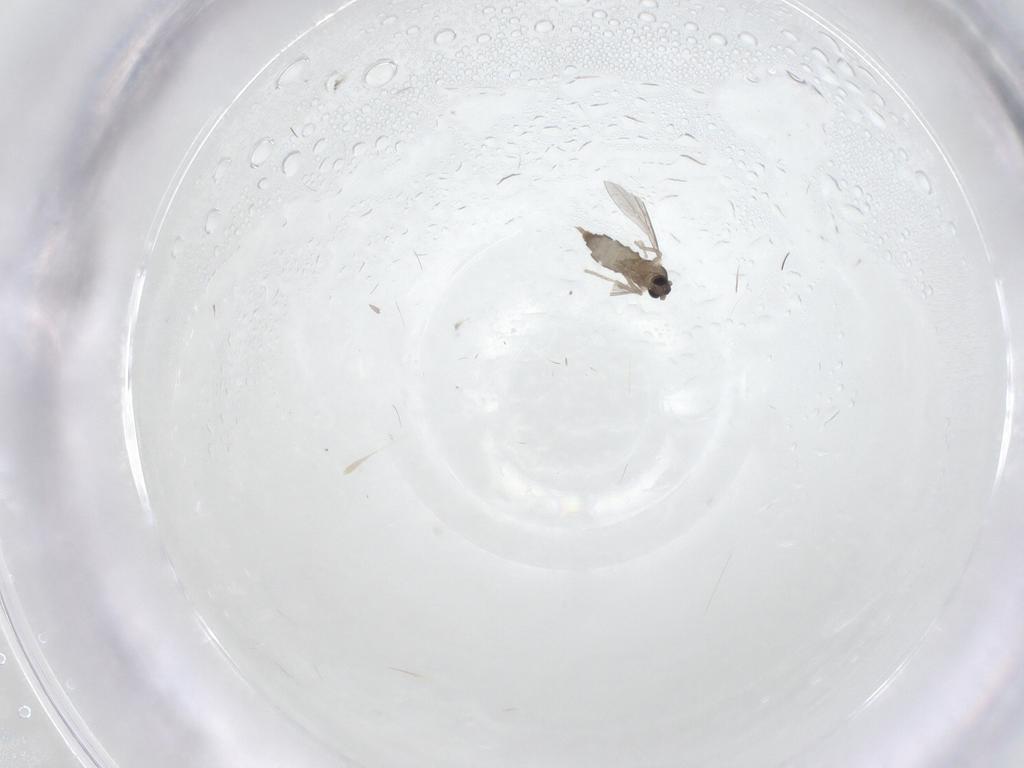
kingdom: Animalia
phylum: Arthropoda
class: Insecta
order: Diptera
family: Cecidomyiidae
